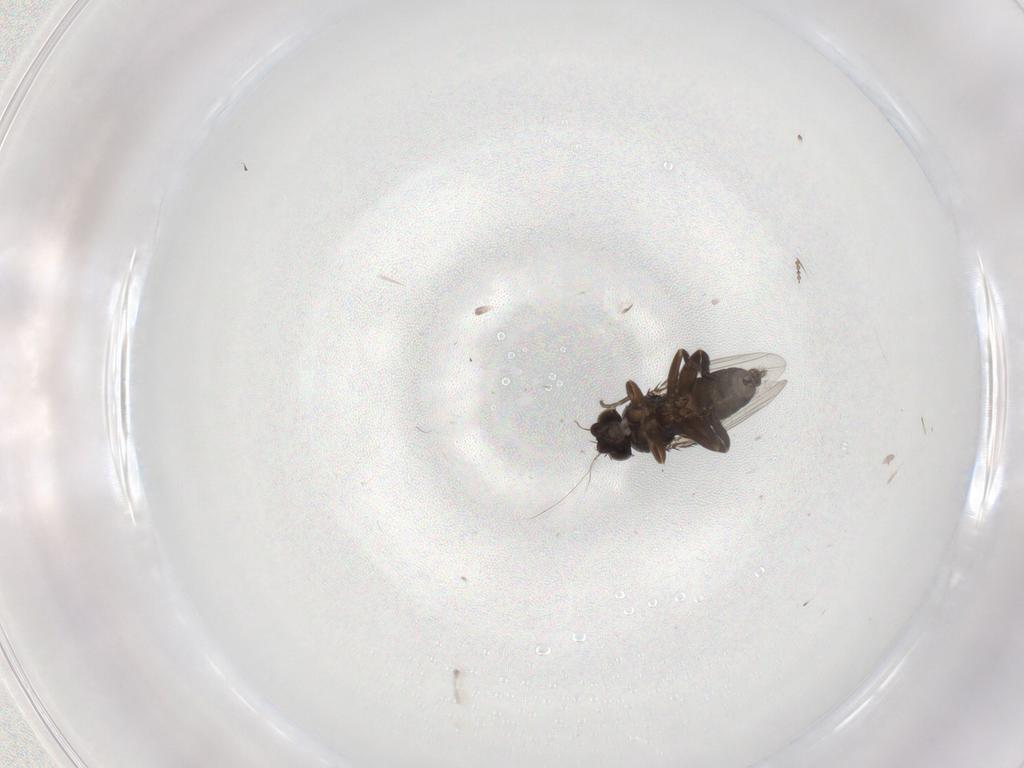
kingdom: Animalia
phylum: Arthropoda
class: Insecta
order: Diptera
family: Phoridae
